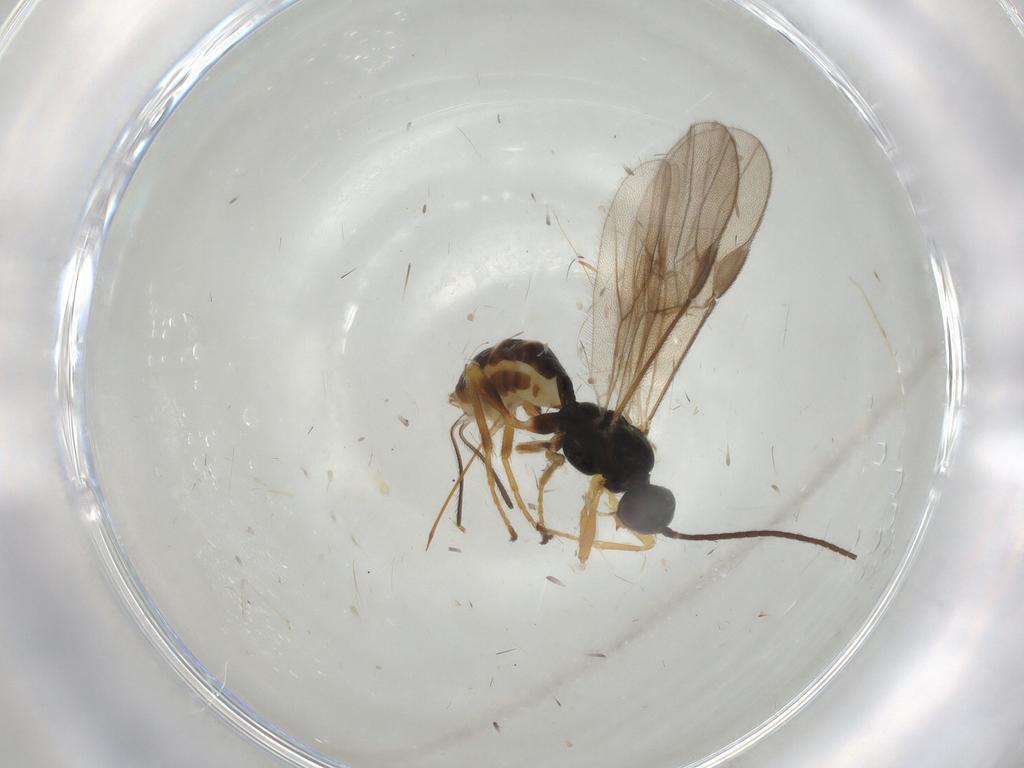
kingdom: Animalia
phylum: Arthropoda
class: Insecta
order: Hymenoptera
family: Braconidae
